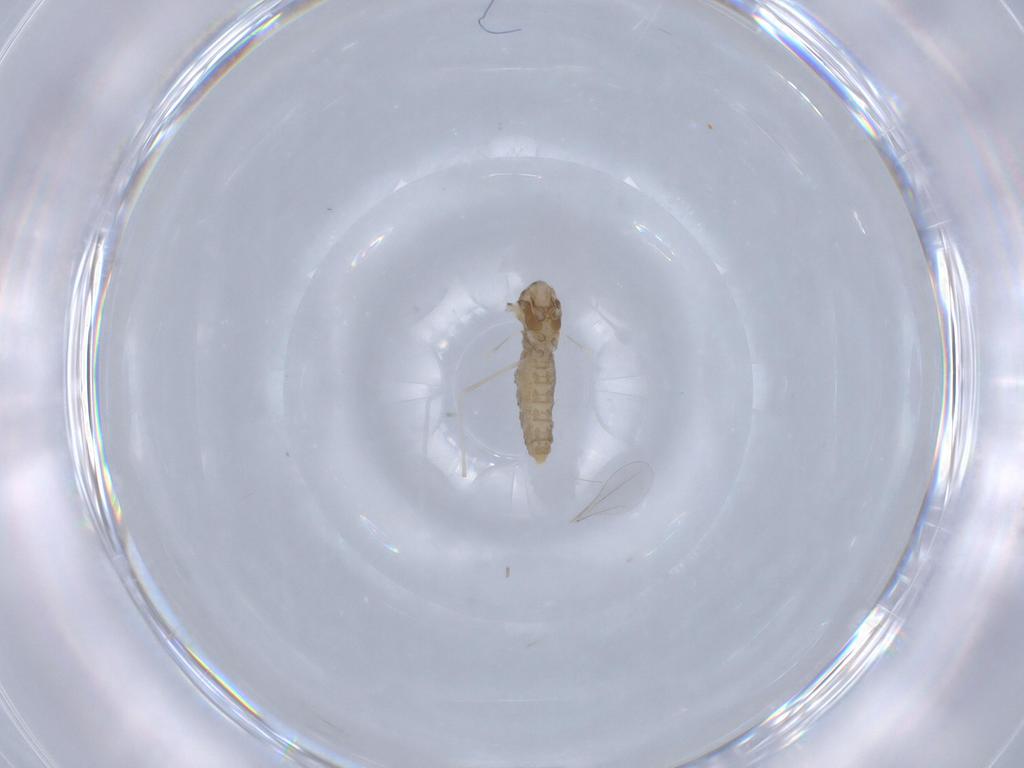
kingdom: Animalia
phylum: Arthropoda
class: Insecta
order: Diptera
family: Cecidomyiidae
